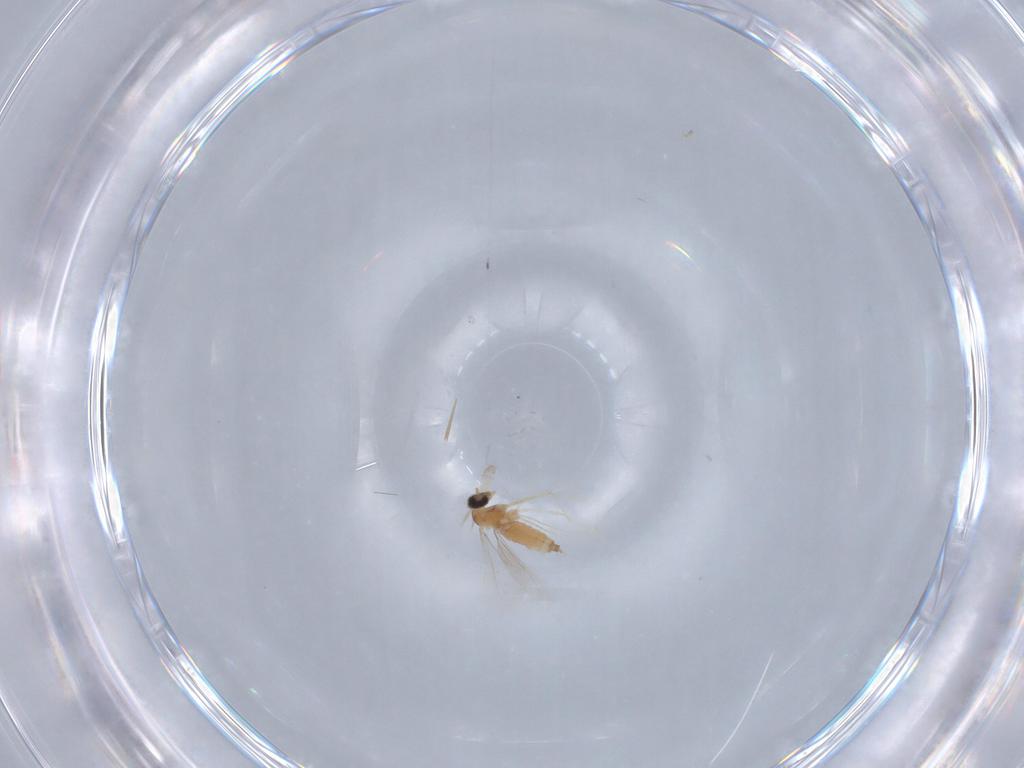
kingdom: Animalia
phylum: Arthropoda
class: Insecta
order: Diptera
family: Cecidomyiidae
